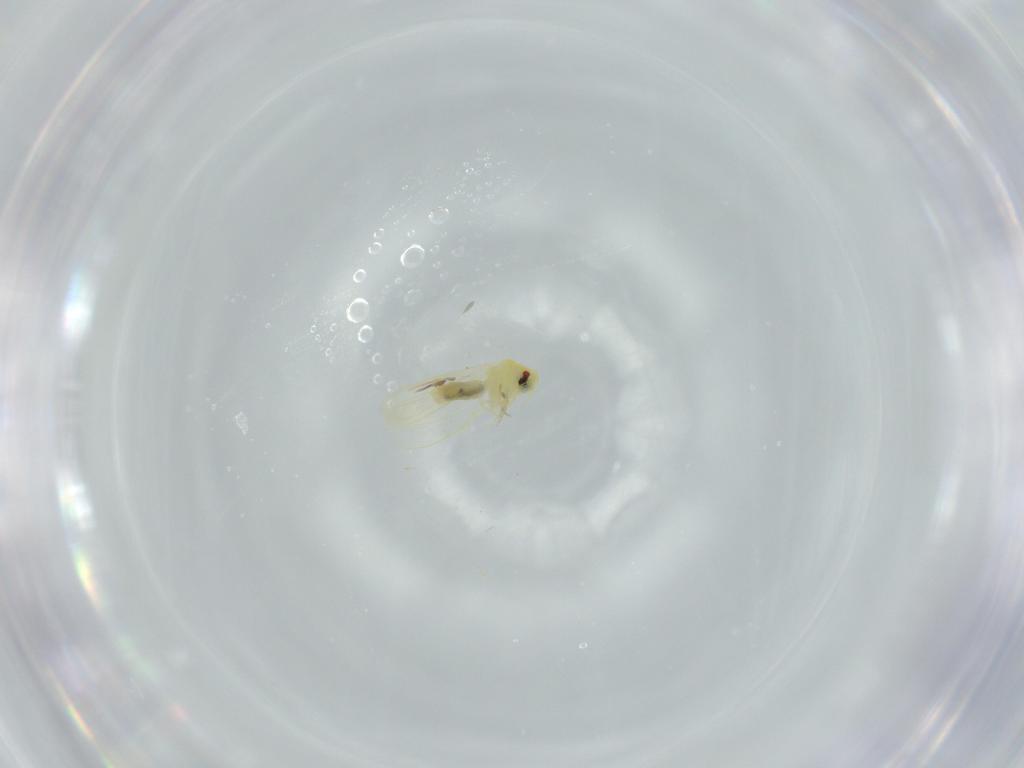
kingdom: Animalia
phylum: Arthropoda
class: Insecta
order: Hemiptera
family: Aleyrodidae
